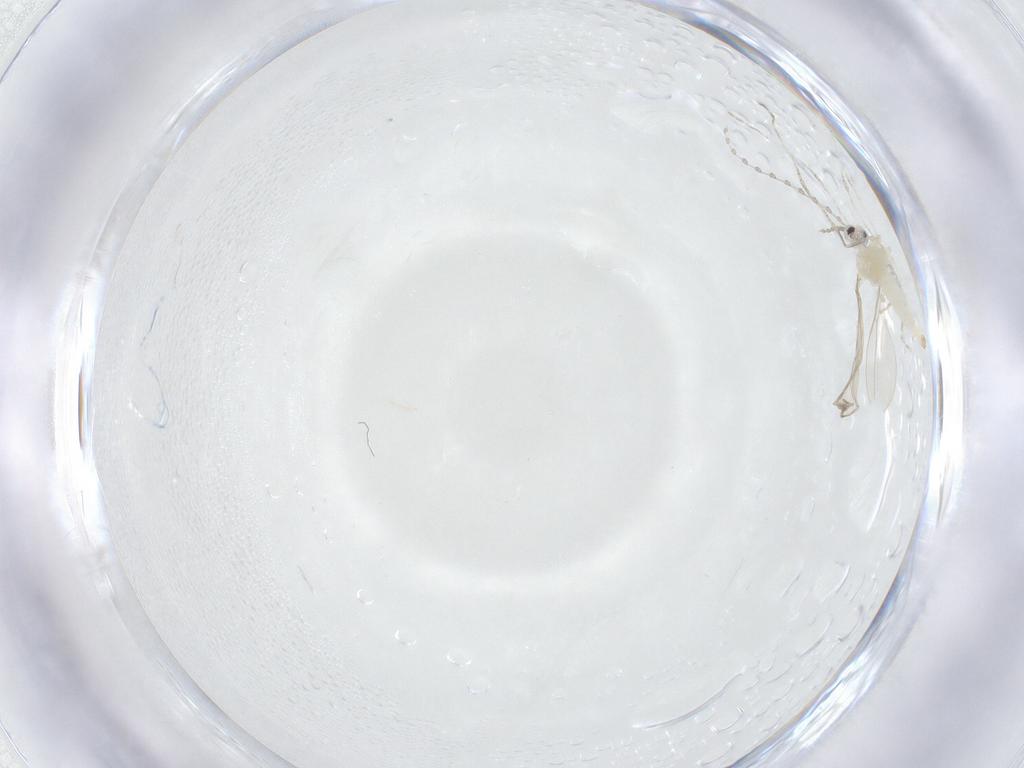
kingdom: Animalia
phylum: Arthropoda
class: Insecta
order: Diptera
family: Cecidomyiidae
